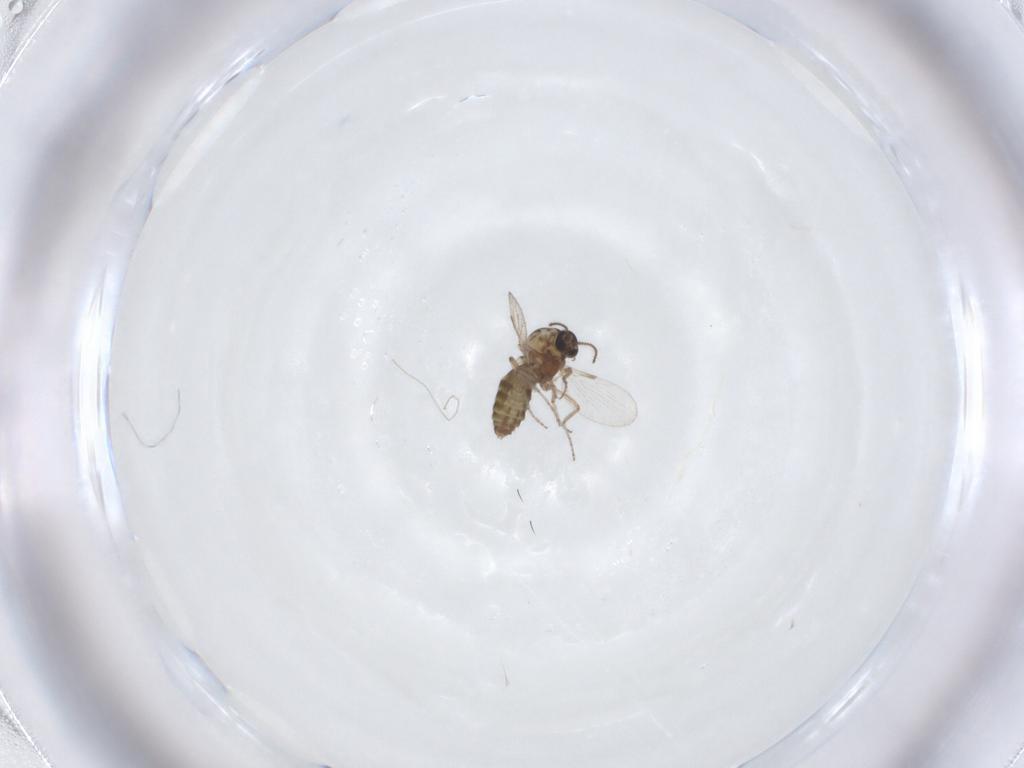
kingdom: Animalia
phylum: Arthropoda
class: Insecta
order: Diptera
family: Ceratopogonidae
